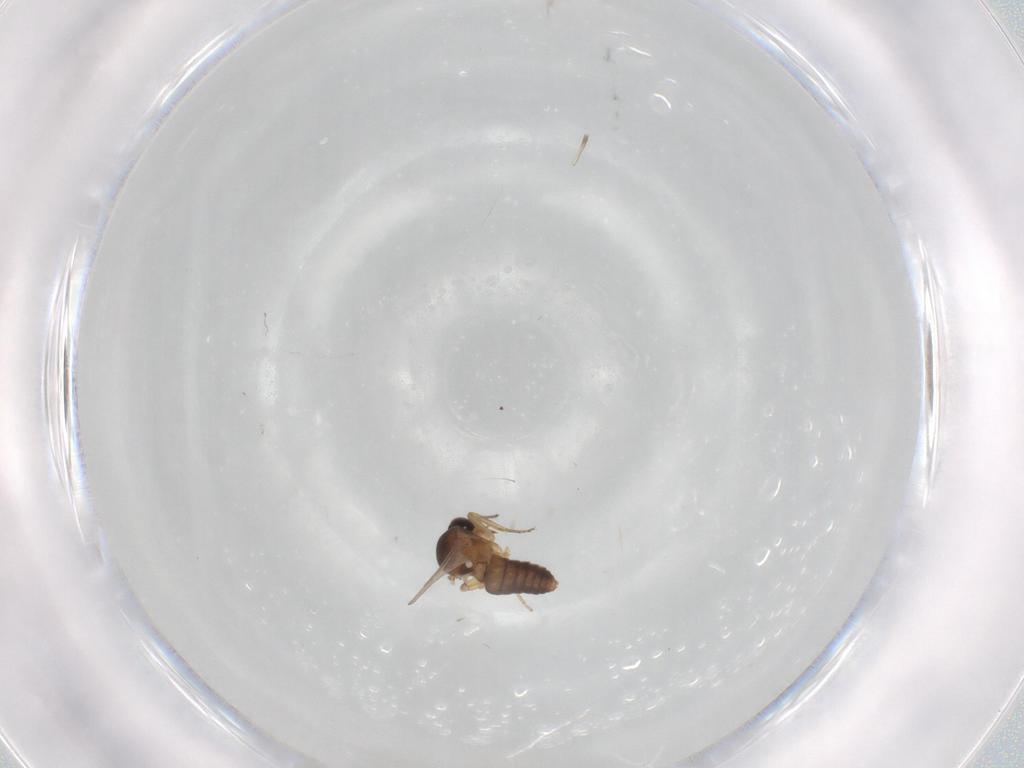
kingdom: Animalia
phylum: Arthropoda
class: Insecta
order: Diptera
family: Ceratopogonidae
